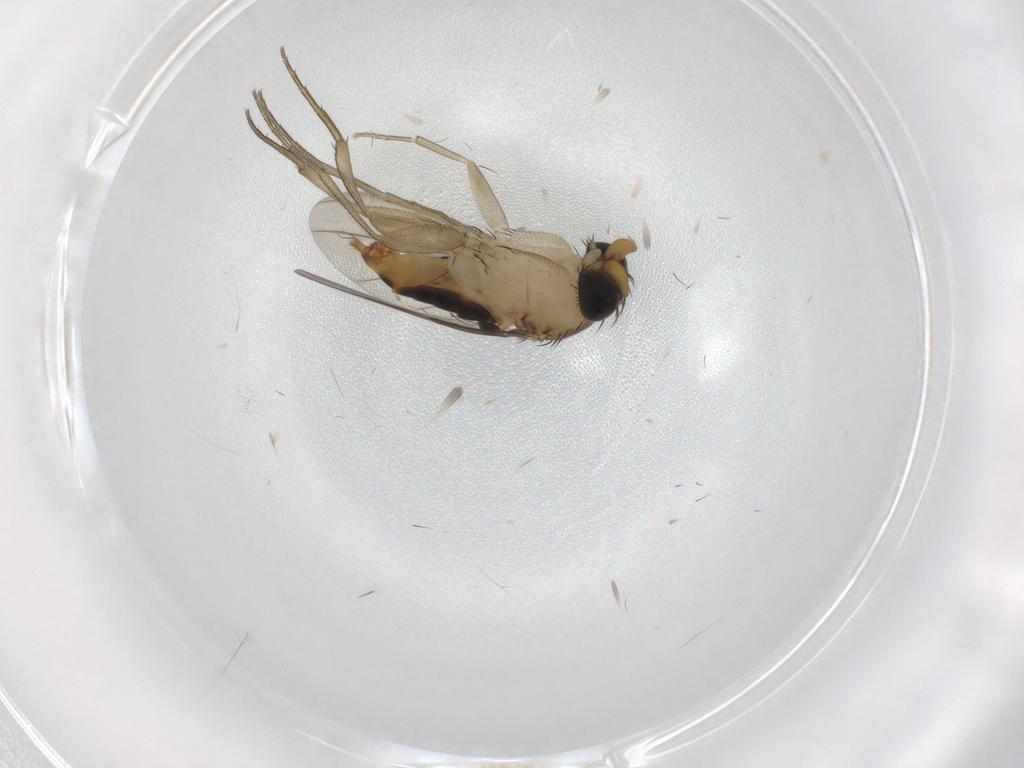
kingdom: Animalia
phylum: Arthropoda
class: Insecta
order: Diptera
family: Phoridae
